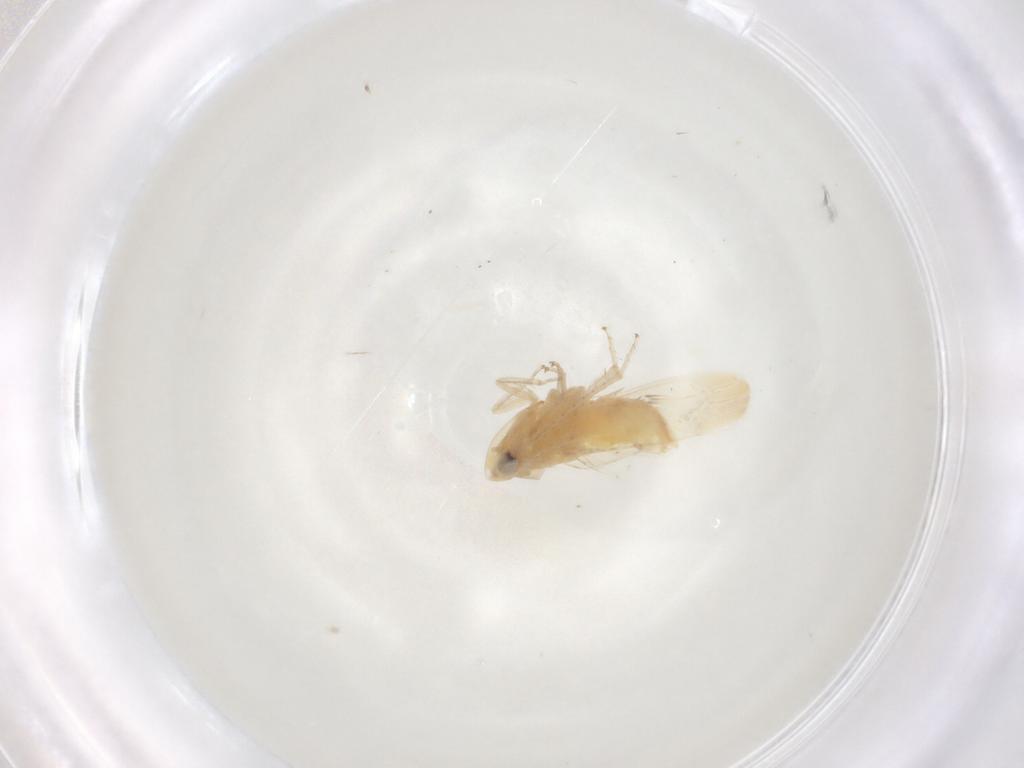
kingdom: Animalia
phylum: Arthropoda
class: Insecta
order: Hemiptera
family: Cicadellidae
